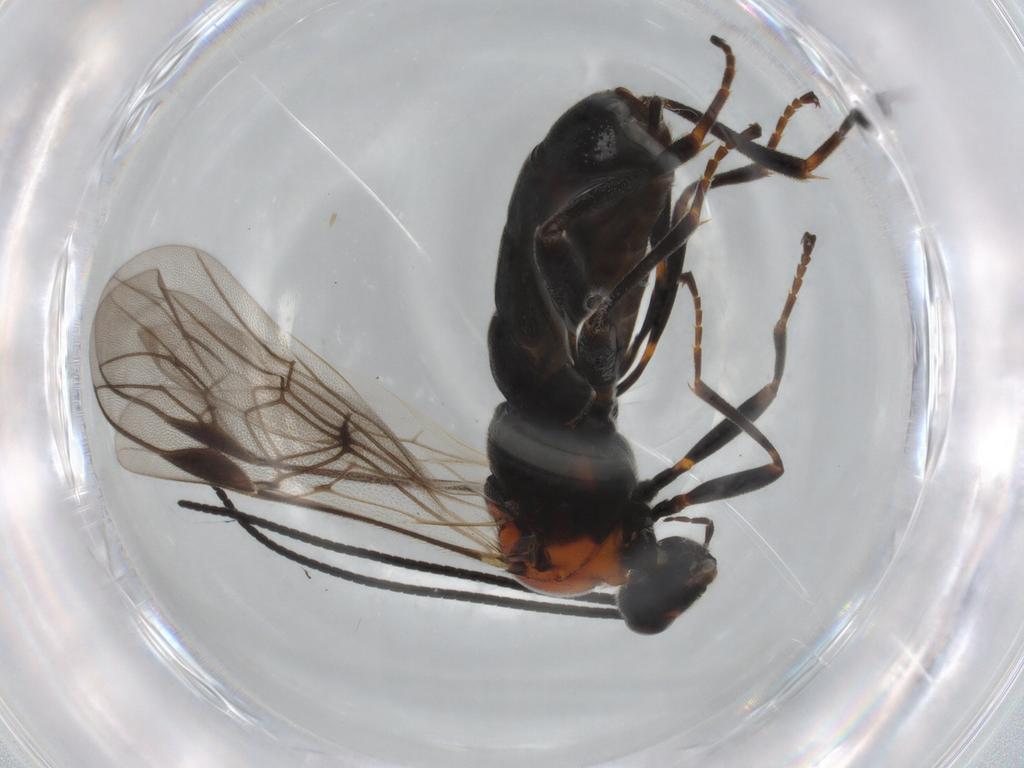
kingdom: Animalia
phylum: Arthropoda
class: Insecta
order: Hymenoptera
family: Braconidae
